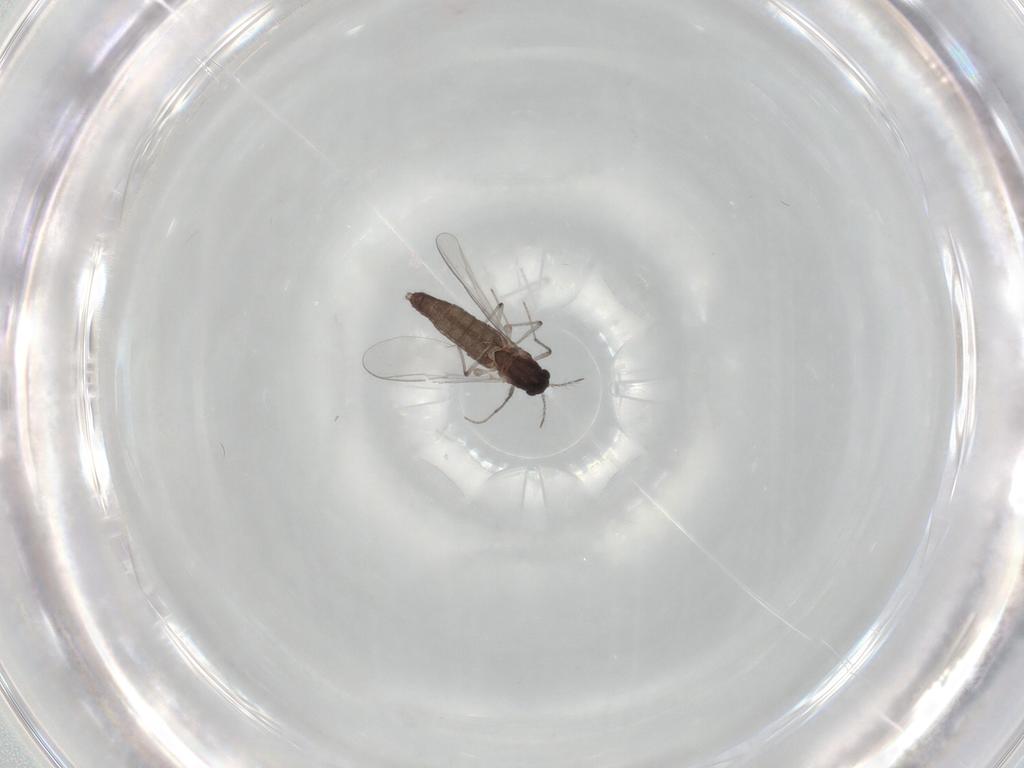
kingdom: Animalia
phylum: Arthropoda
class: Insecta
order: Diptera
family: Chironomidae
